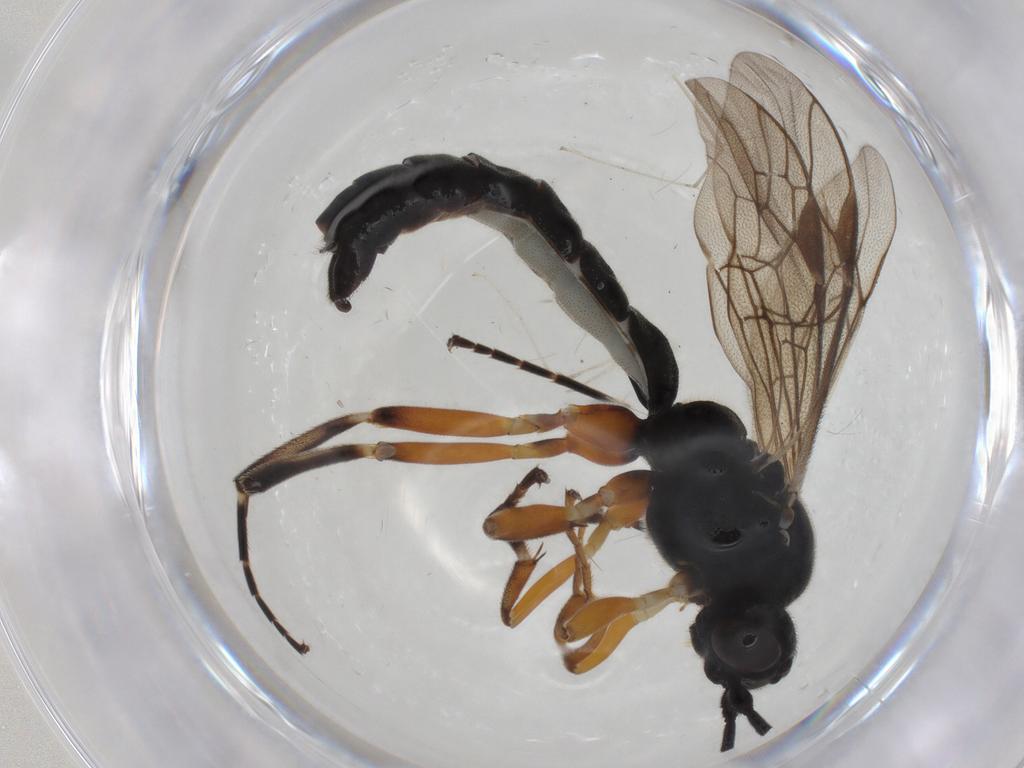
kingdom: Animalia
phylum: Arthropoda
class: Insecta
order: Hymenoptera
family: Ichneumonidae
